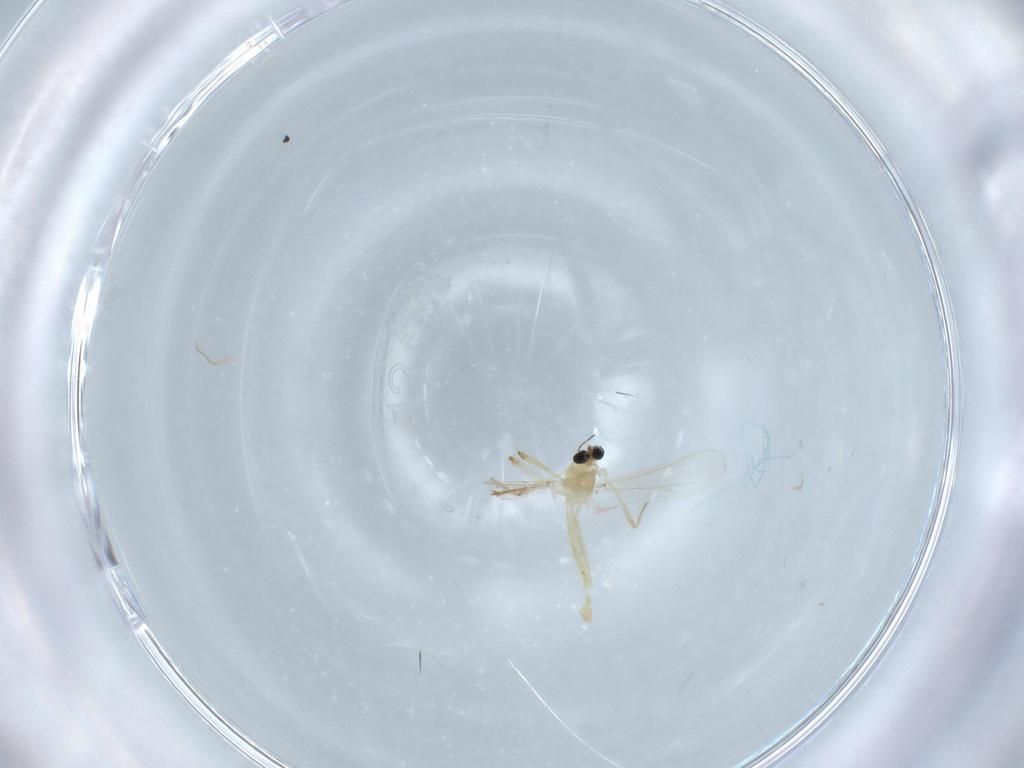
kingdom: Animalia
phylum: Arthropoda
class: Insecta
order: Diptera
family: Chironomidae
